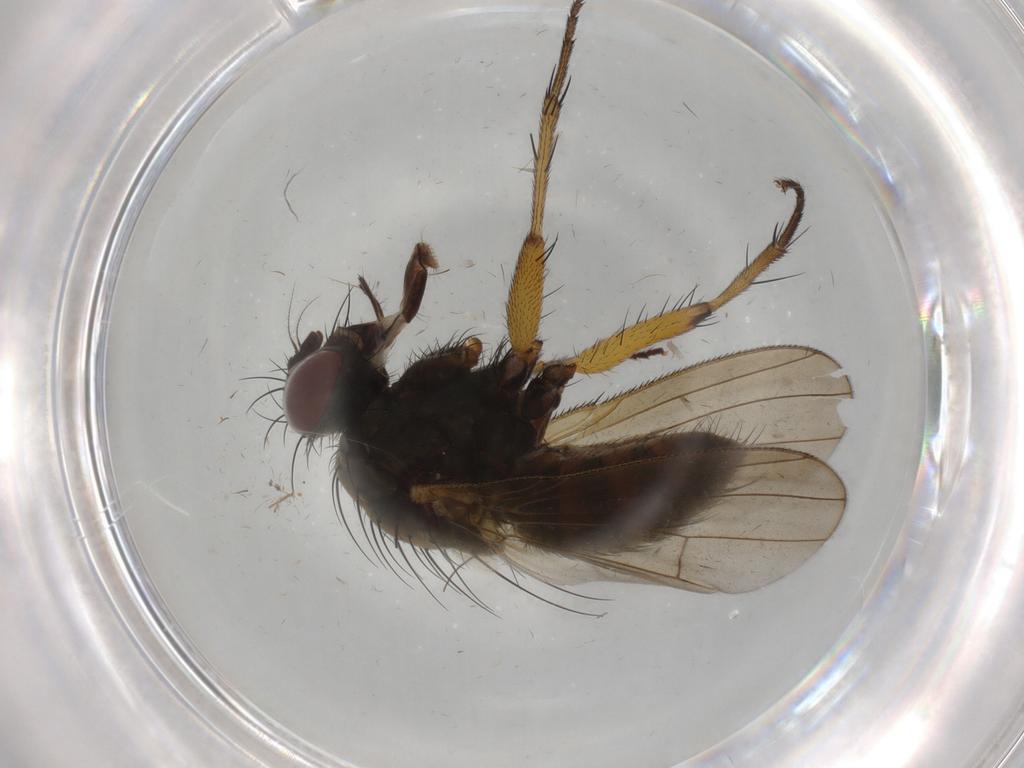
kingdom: Animalia
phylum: Arthropoda
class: Insecta
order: Diptera
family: Muscidae
